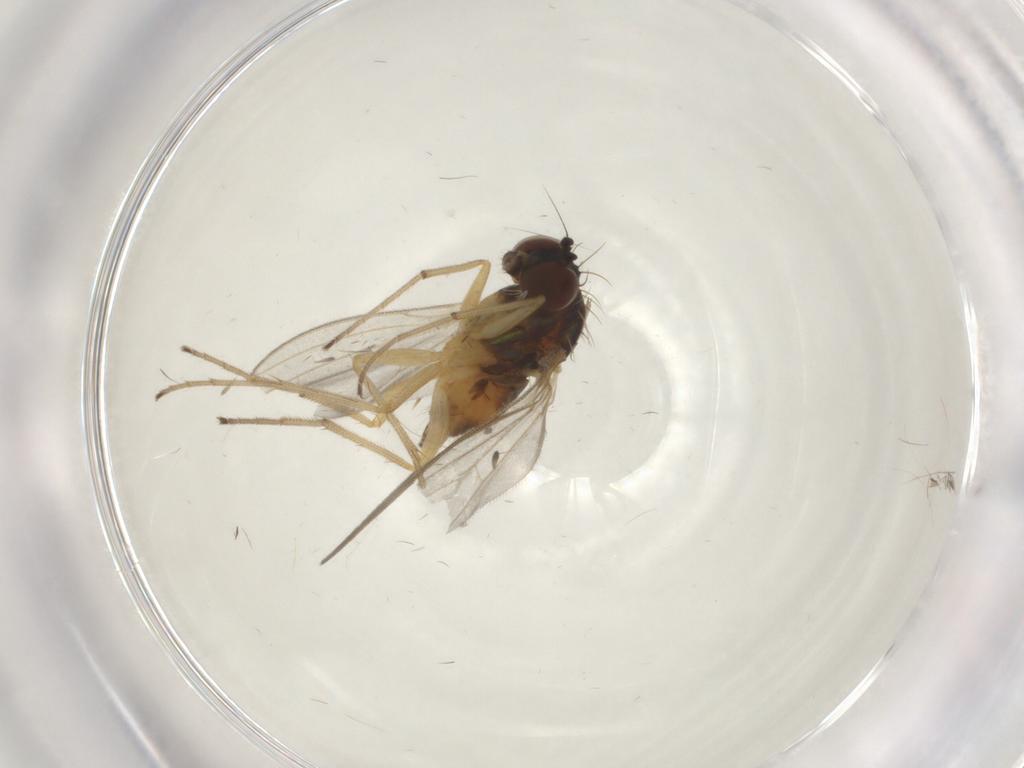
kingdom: Animalia
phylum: Arthropoda
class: Insecta
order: Diptera
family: Dolichopodidae
